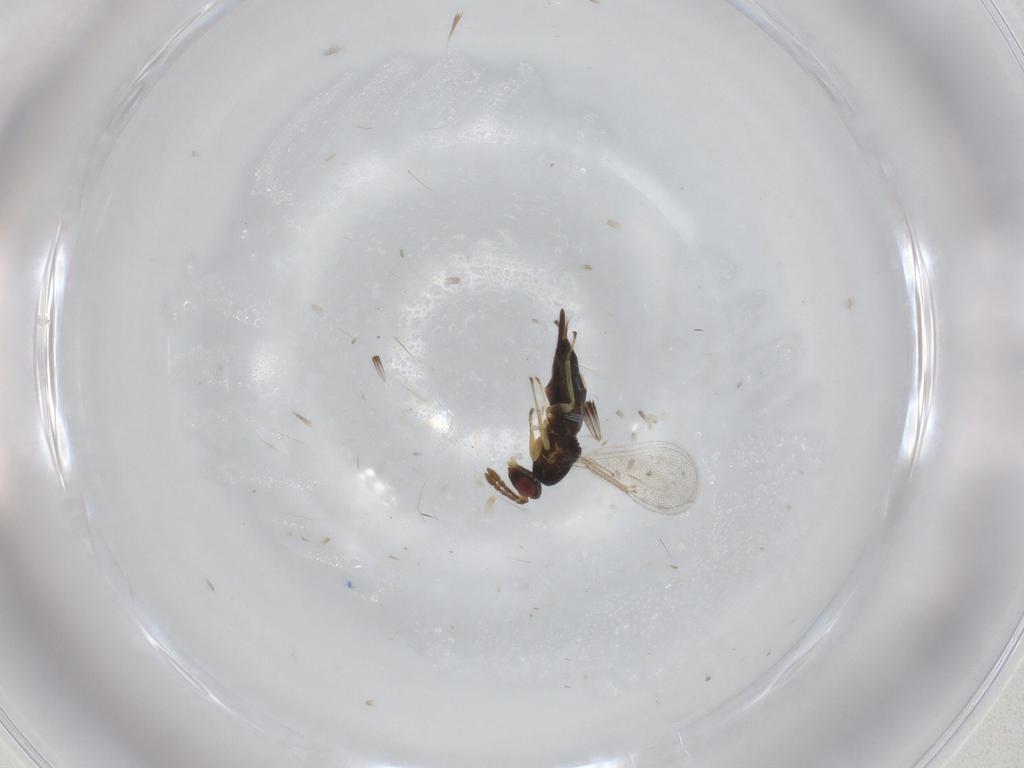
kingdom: Animalia
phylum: Arthropoda
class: Insecta
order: Hymenoptera
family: Eulophidae
